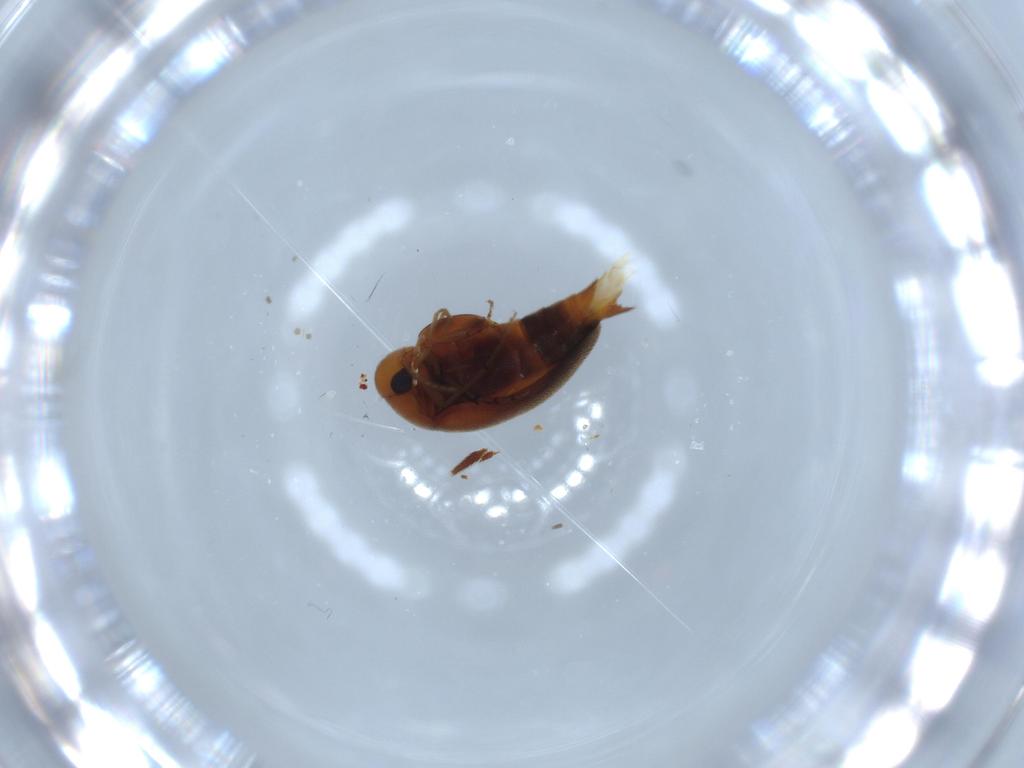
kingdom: Animalia
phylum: Arthropoda
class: Insecta
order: Coleoptera
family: Mordellidae
